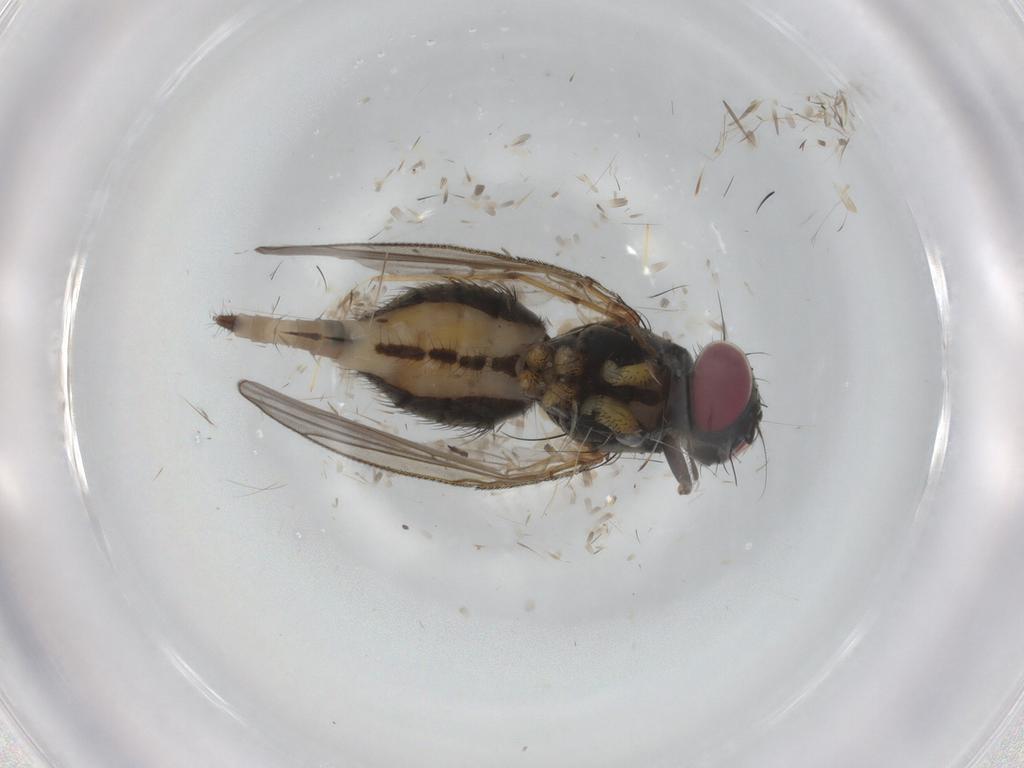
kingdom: Animalia
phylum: Arthropoda
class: Insecta
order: Diptera
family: Muscidae
